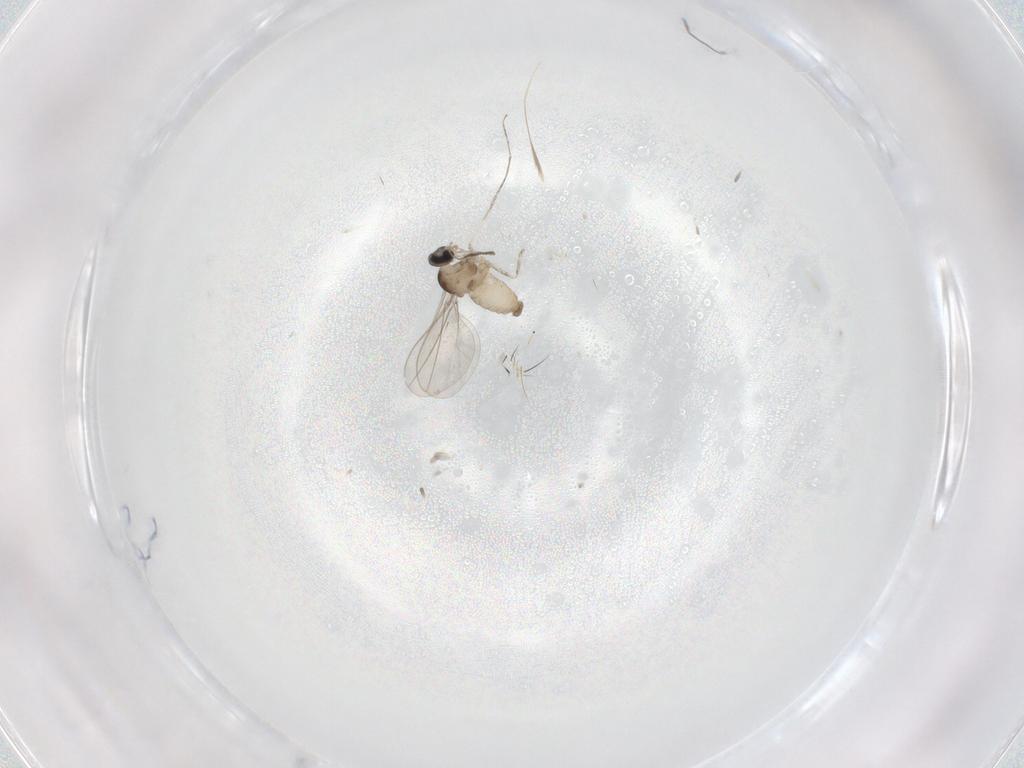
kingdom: Animalia
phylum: Arthropoda
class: Insecta
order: Diptera
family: Cecidomyiidae
